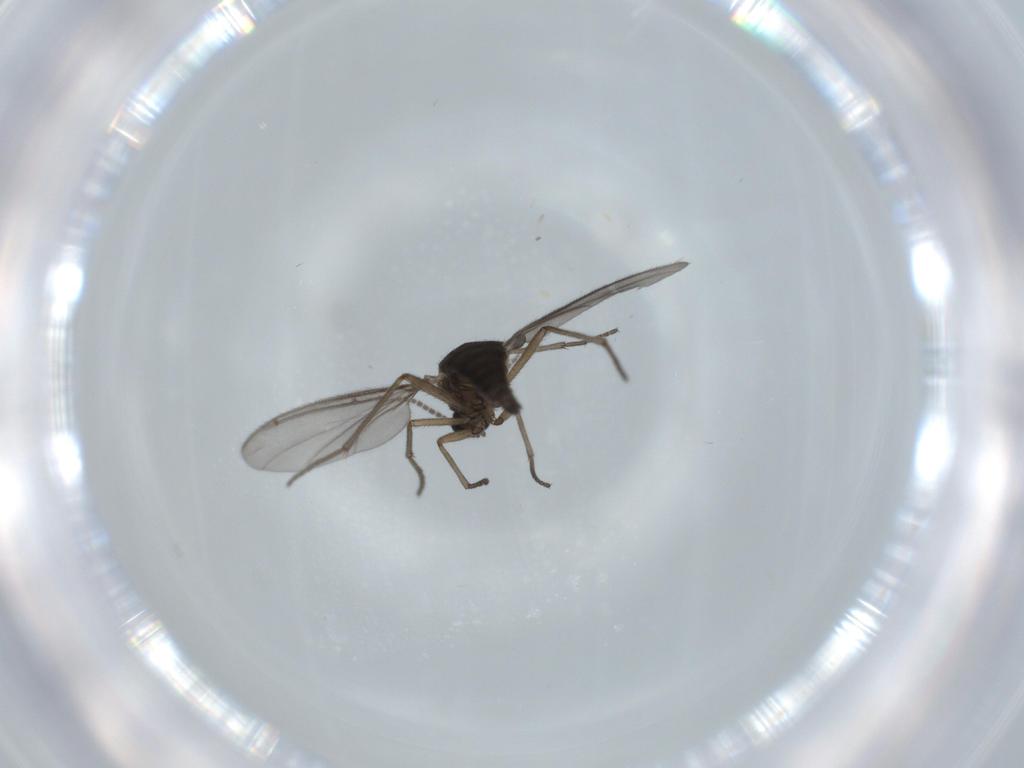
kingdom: Animalia
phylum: Arthropoda
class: Insecta
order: Diptera
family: Sciaridae
